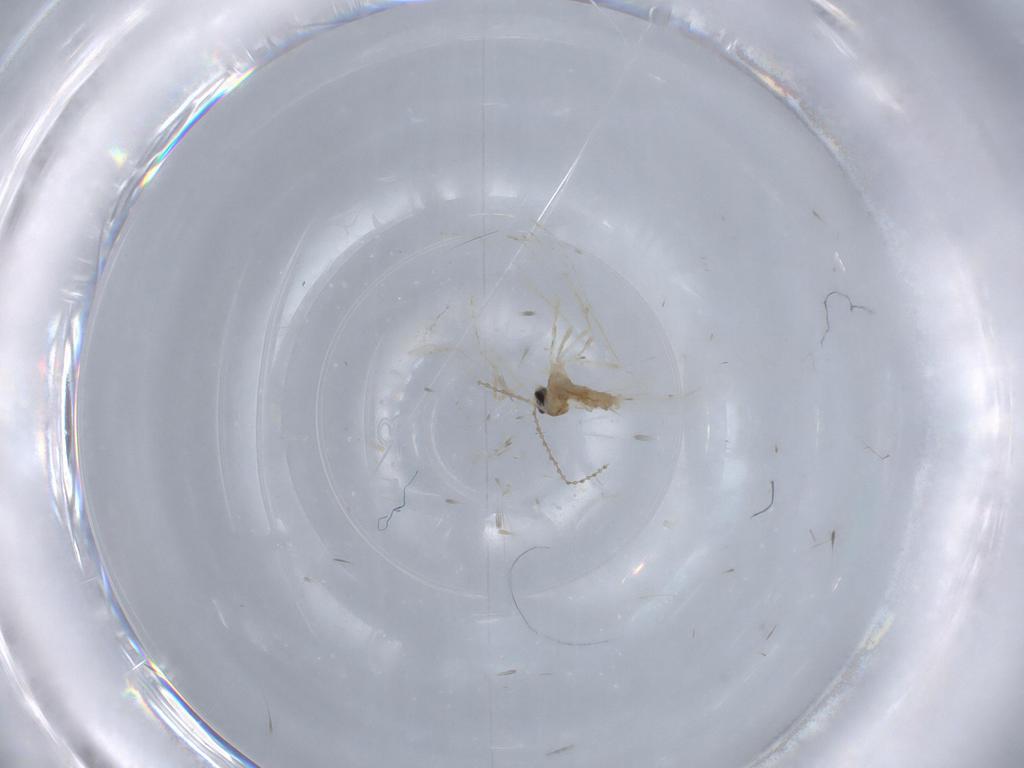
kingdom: Animalia
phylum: Arthropoda
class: Insecta
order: Diptera
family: Cecidomyiidae
